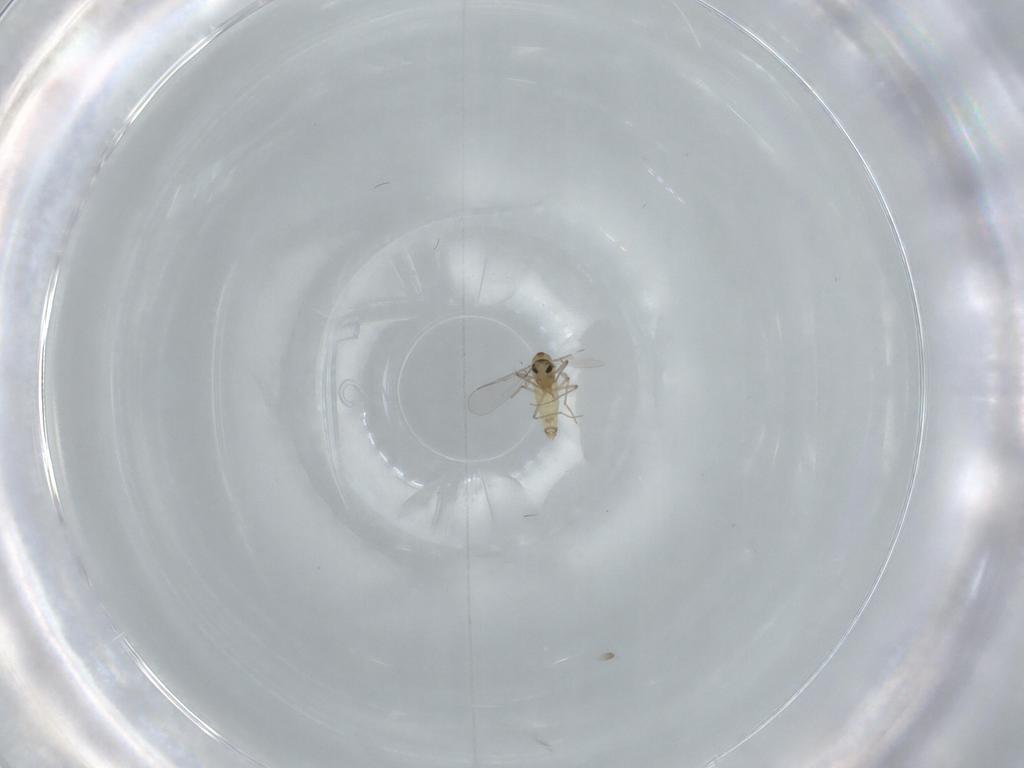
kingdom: Animalia
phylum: Arthropoda
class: Insecta
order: Diptera
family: Chironomidae
